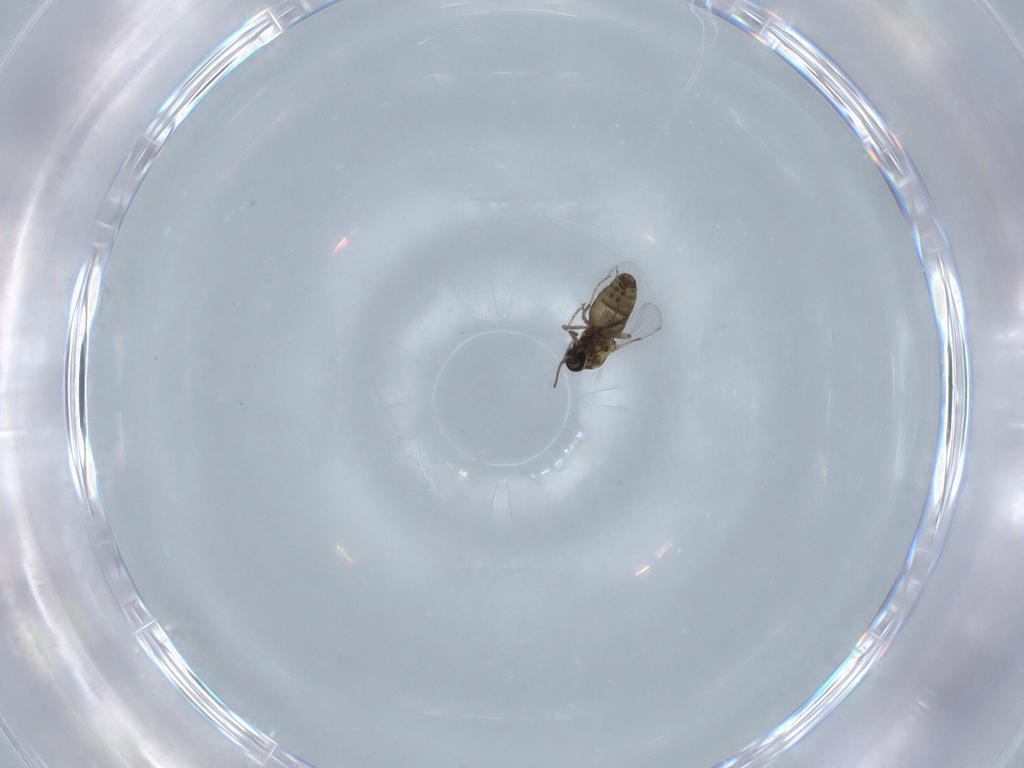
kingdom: Animalia
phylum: Arthropoda
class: Insecta
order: Diptera
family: Ceratopogonidae
